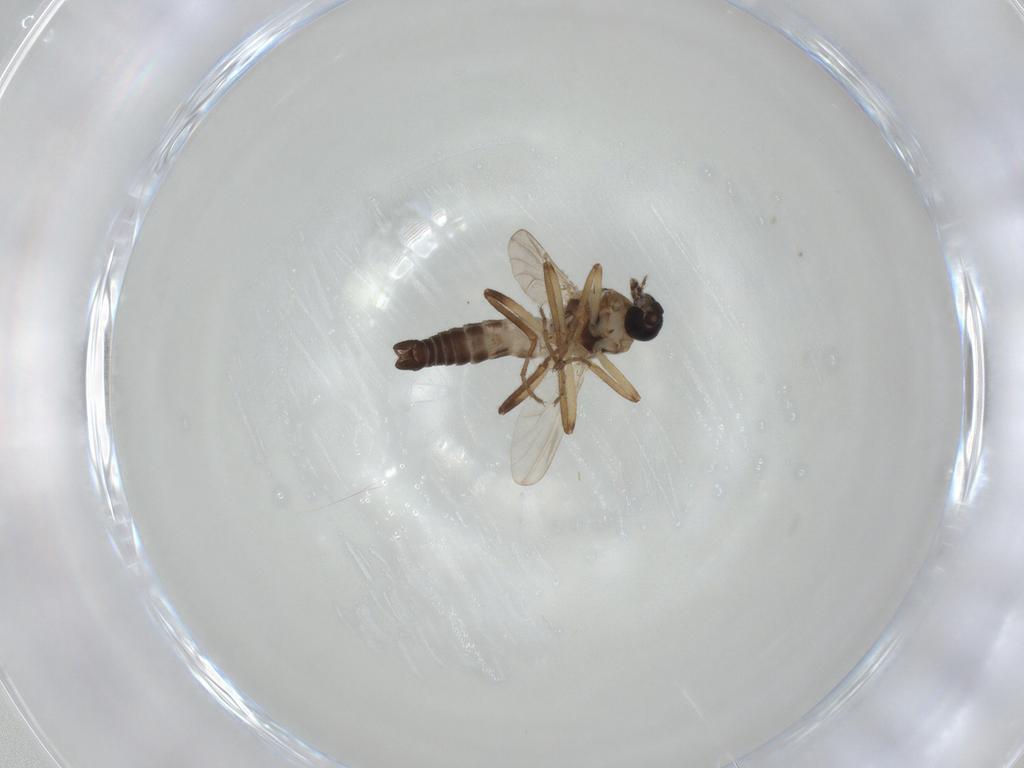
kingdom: Animalia
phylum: Arthropoda
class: Insecta
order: Diptera
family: Ceratopogonidae
